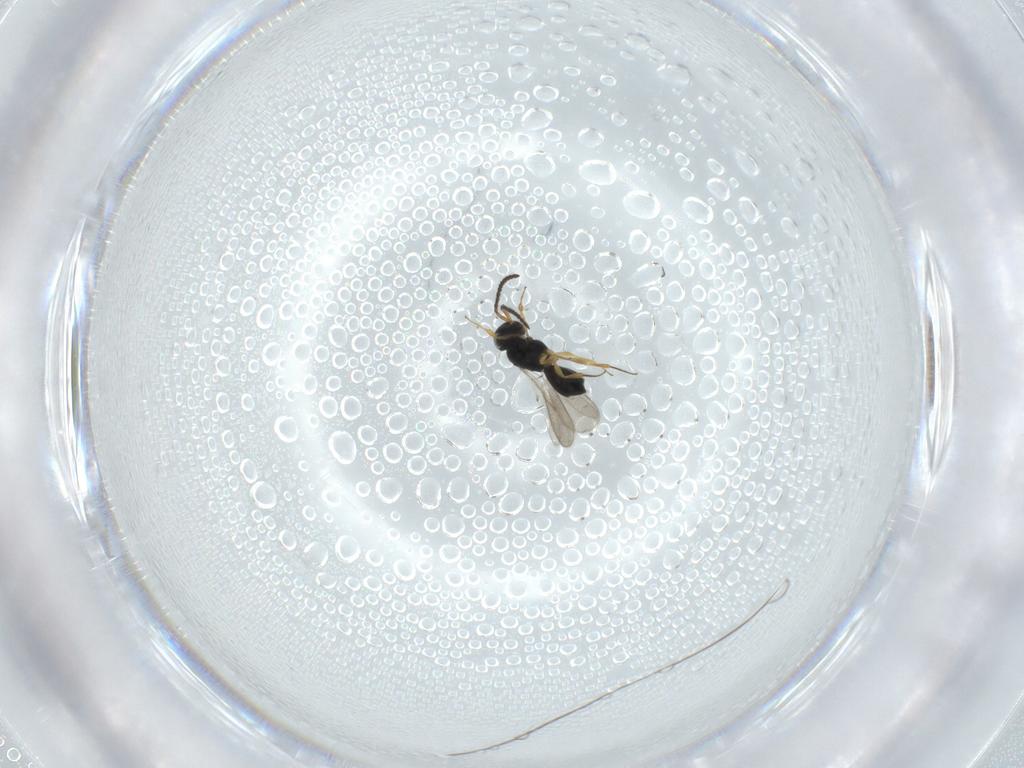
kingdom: Animalia
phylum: Arthropoda
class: Insecta
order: Hymenoptera
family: Scelionidae
